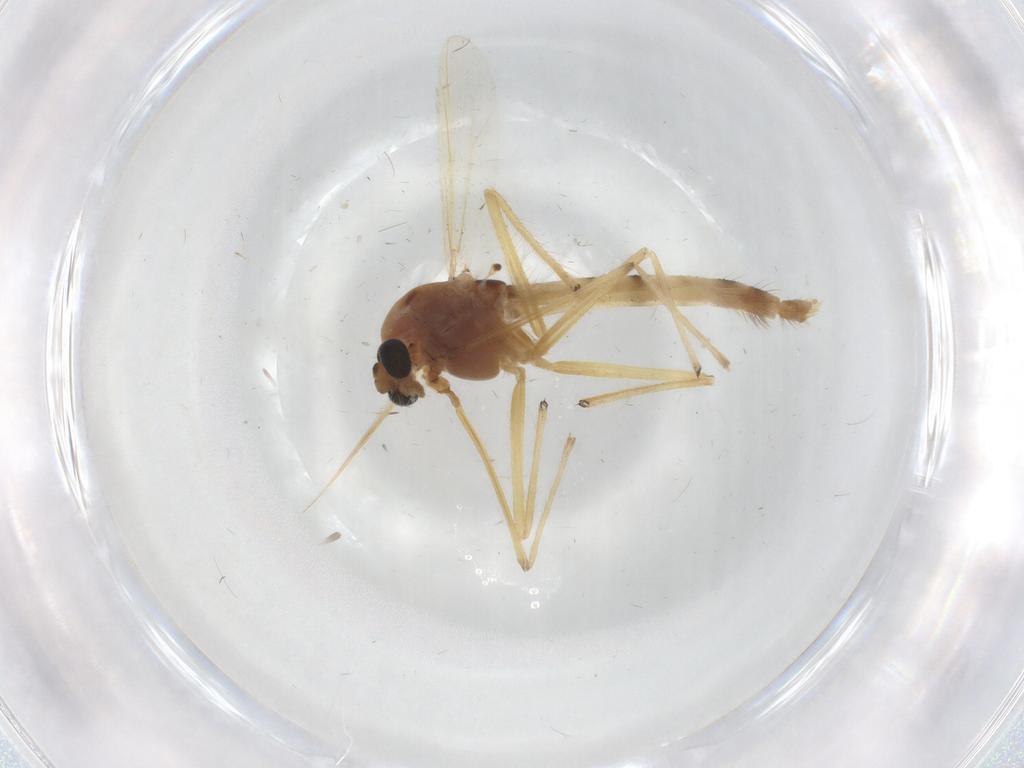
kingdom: Animalia
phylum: Arthropoda
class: Insecta
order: Diptera
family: Chironomidae
